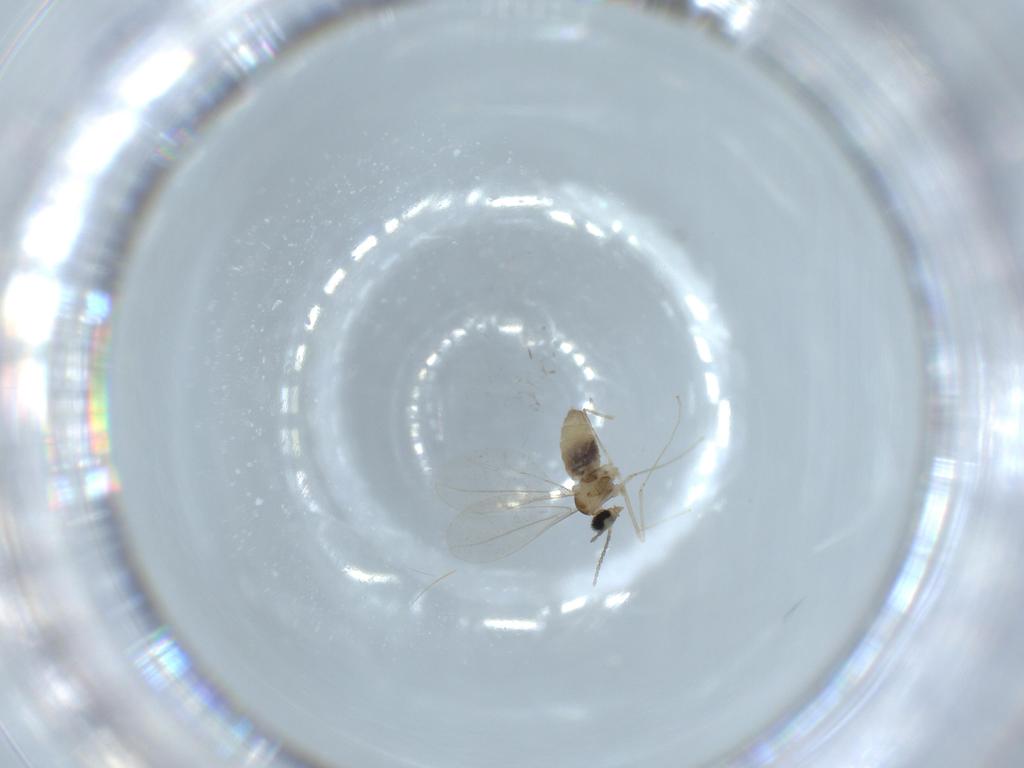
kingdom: Animalia
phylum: Arthropoda
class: Insecta
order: Diptera
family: Cecidomyiidae
